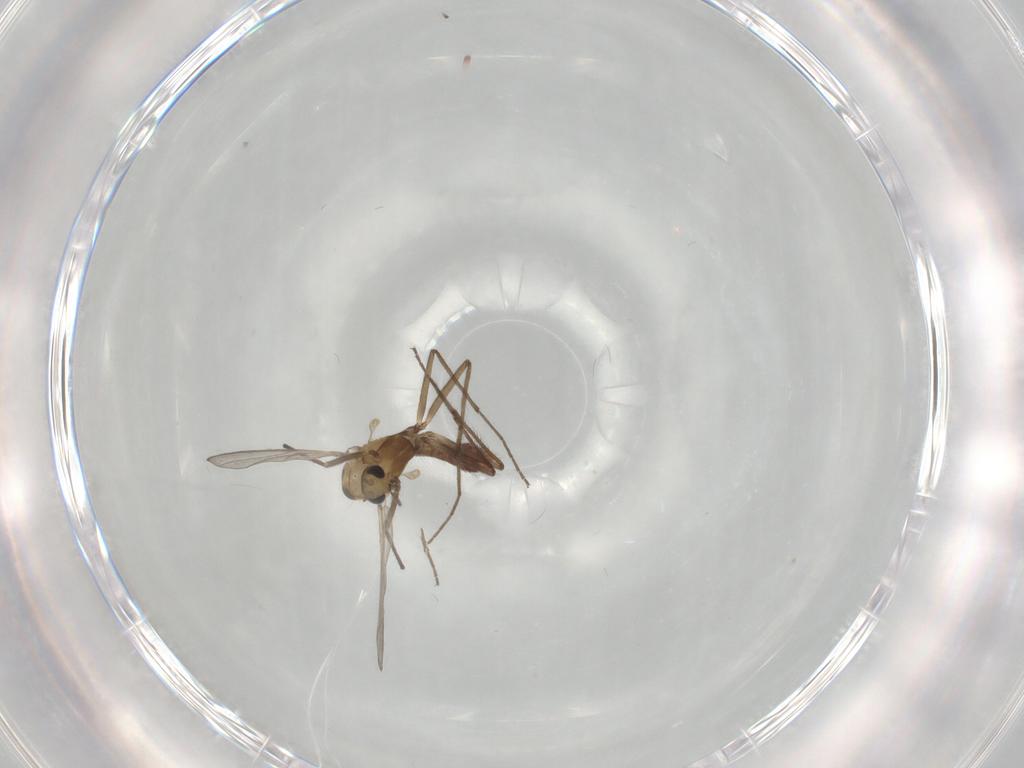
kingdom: Animalia
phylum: Arthropoda
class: Insecta
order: Diptera
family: Chironomidae
